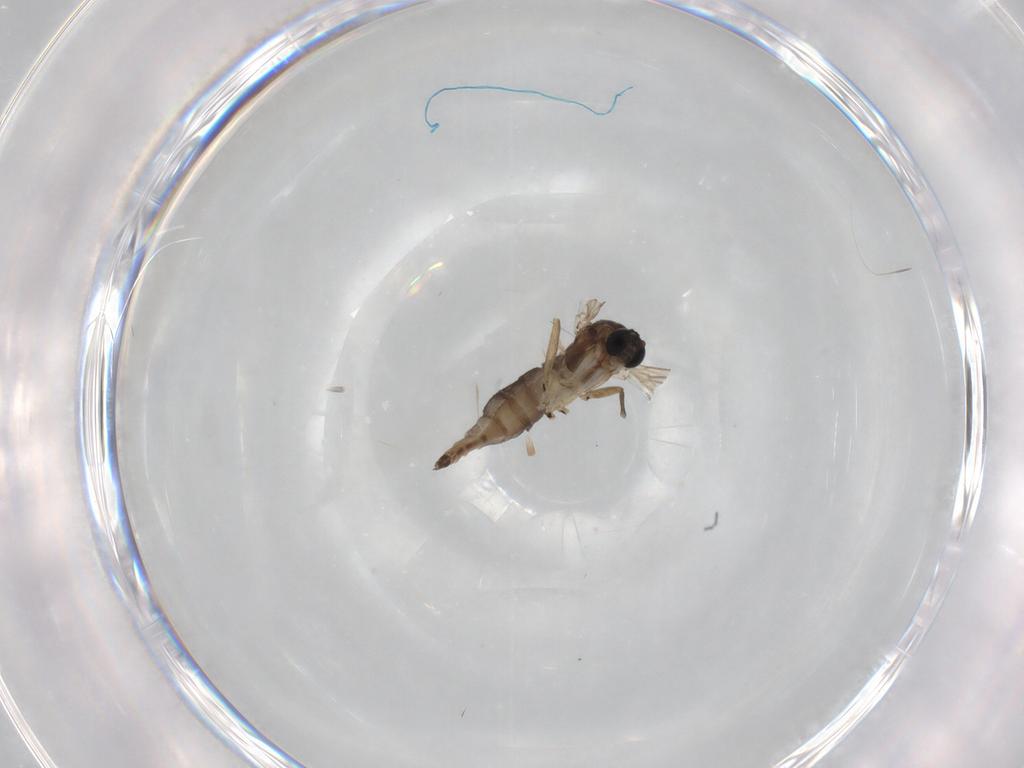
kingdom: Animalia
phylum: Arthropoda
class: Insecta
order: Diptera
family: Sciaridae
